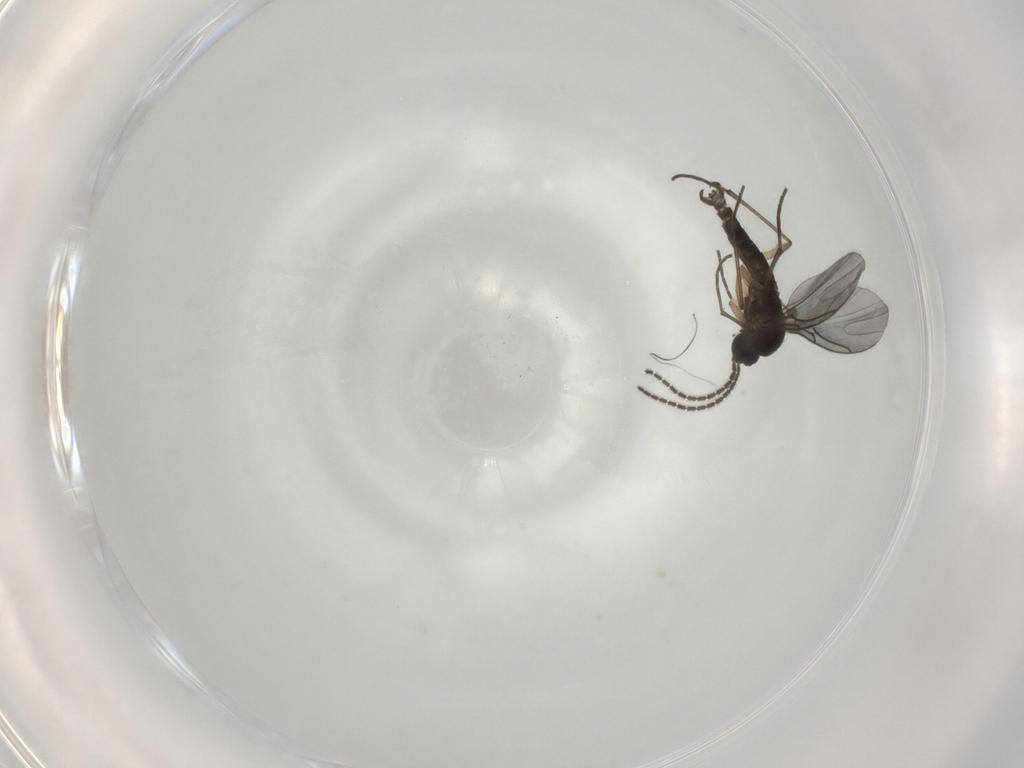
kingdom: Animalia
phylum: Arthropoda
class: Insecta
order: Diptera
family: Sciaridae
